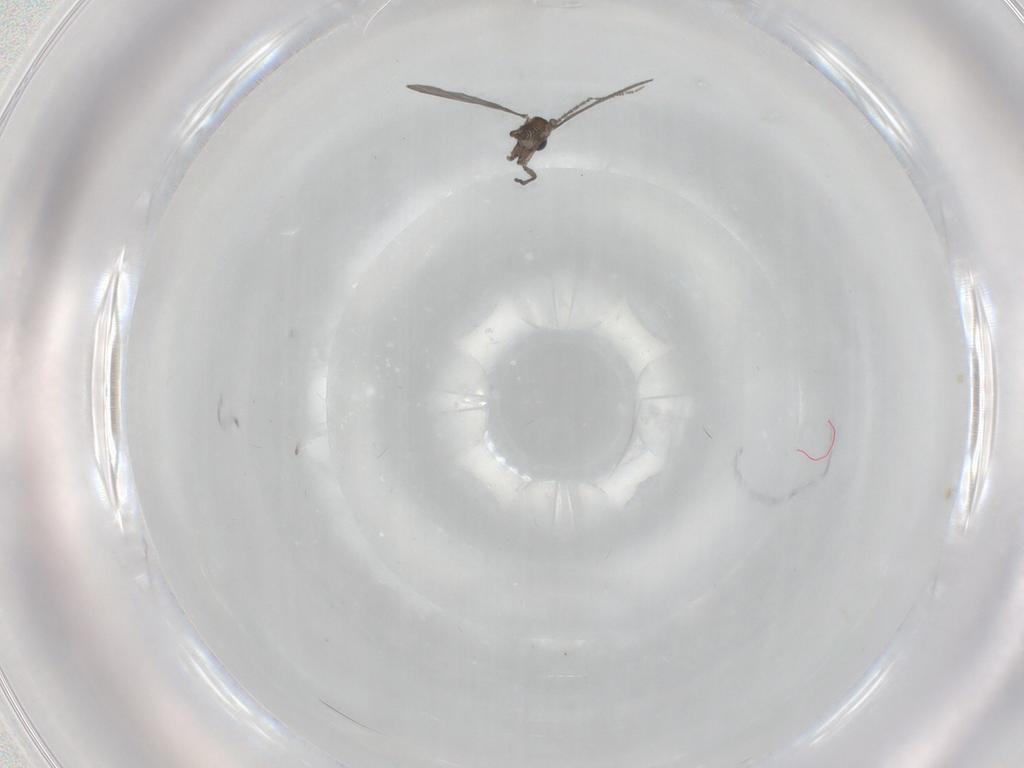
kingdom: Animalia
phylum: Arthropoda
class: Insecta
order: Diptera
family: Sciaridae
